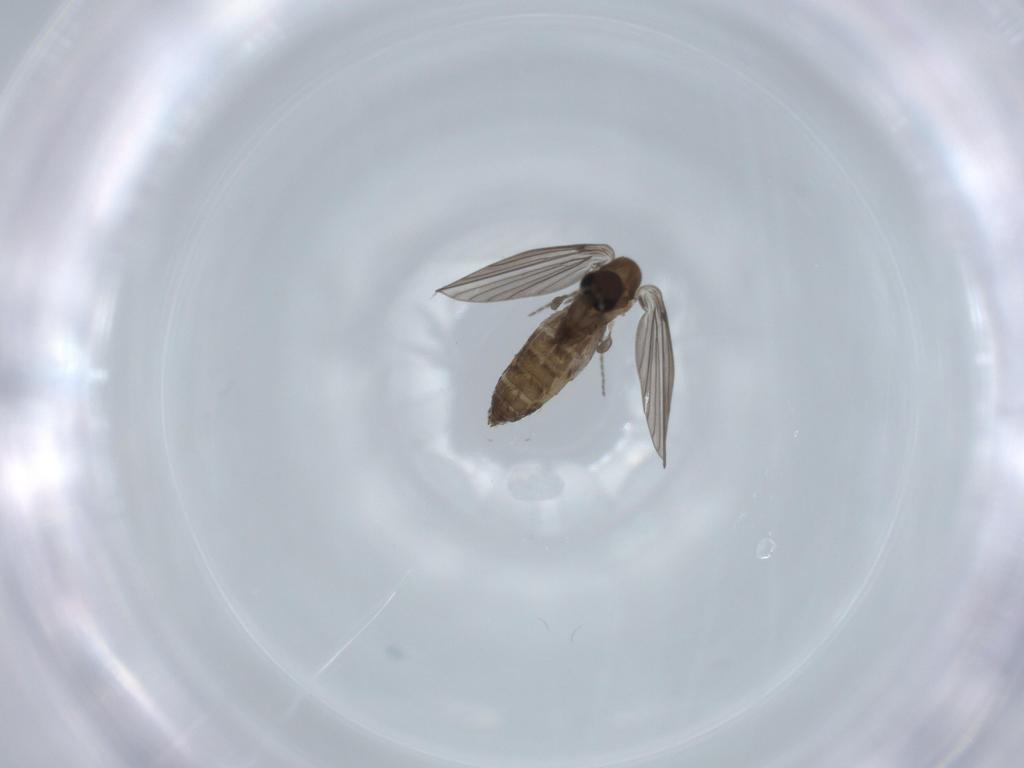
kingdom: Animalia
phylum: Arthropoda
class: Insecta
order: Diptera
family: Psychodidae
